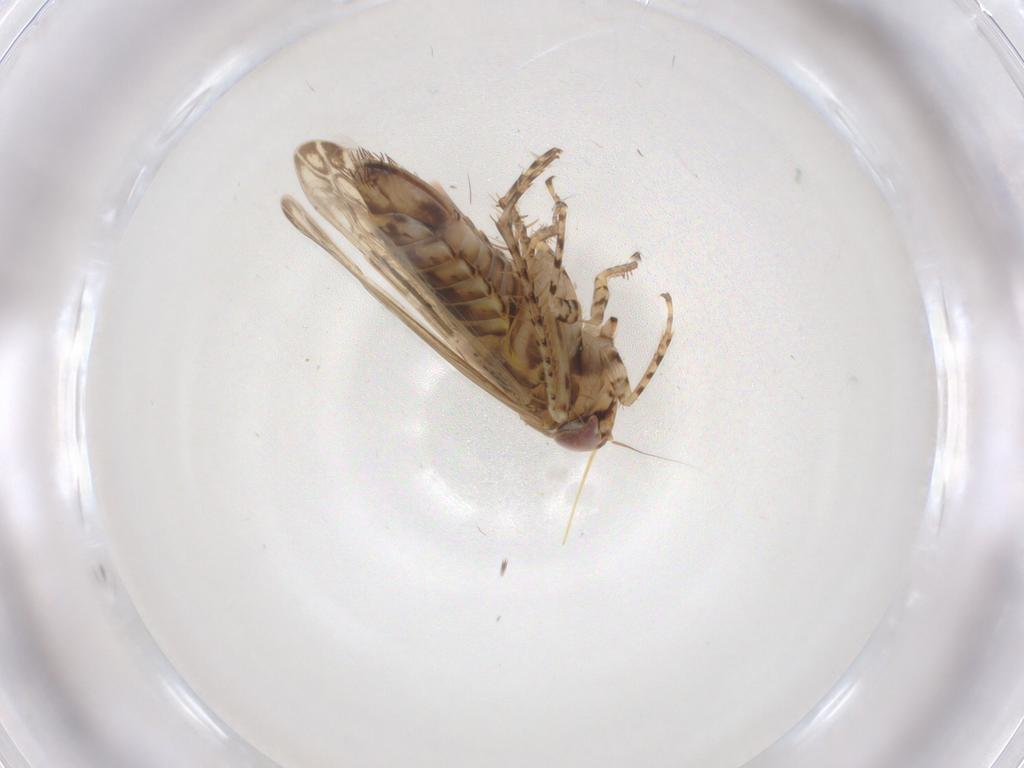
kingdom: Animalia
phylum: Arthropoda
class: Insecta
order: Hemiptera
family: Cicadellidae
